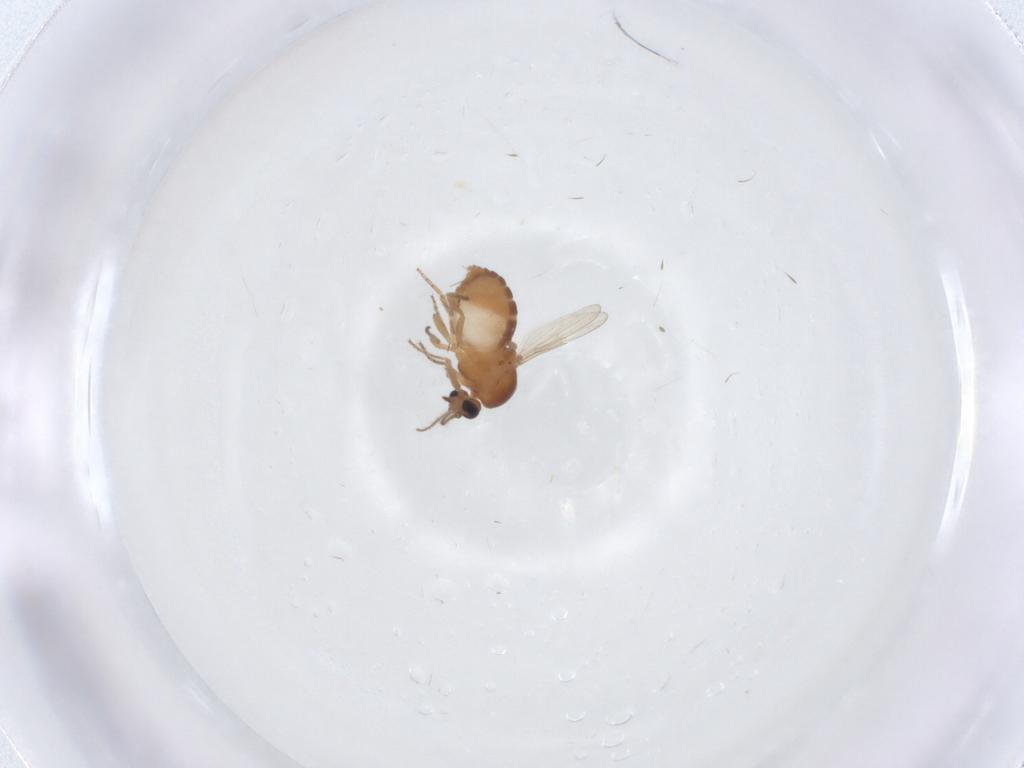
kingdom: Animalia
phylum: Arthropoda
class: Insecta
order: Diptera
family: Ceratopogonidae
